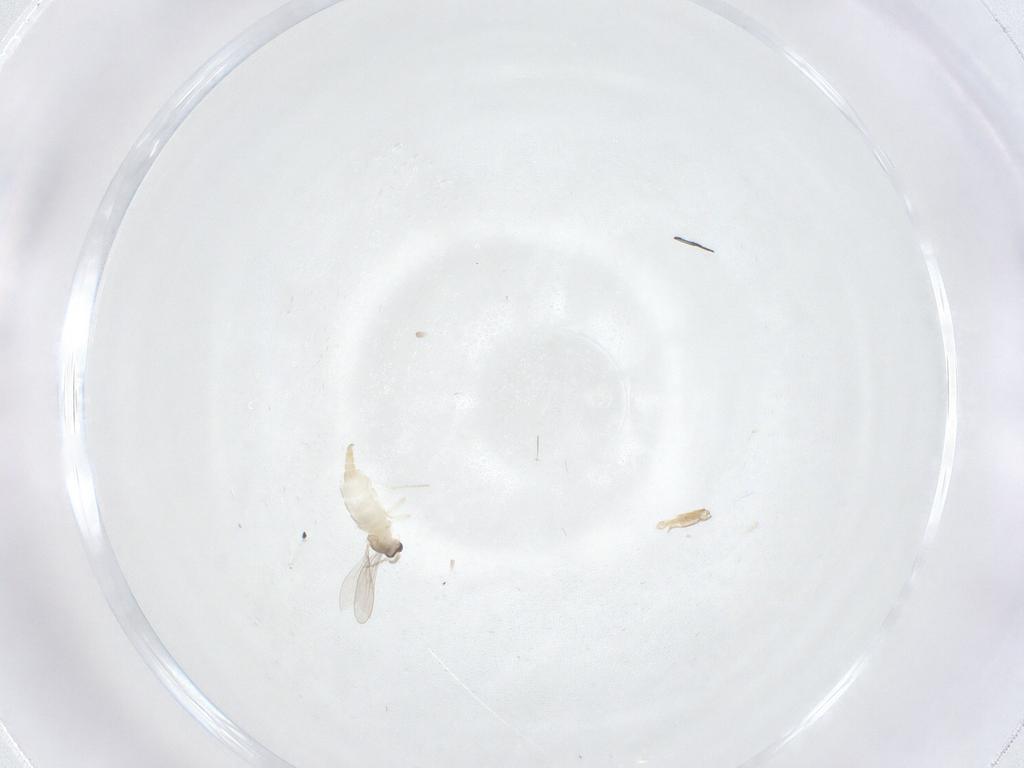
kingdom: Animalia
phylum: Arthropoda
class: Insecta
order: Diptera
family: Cecidomyiidae
